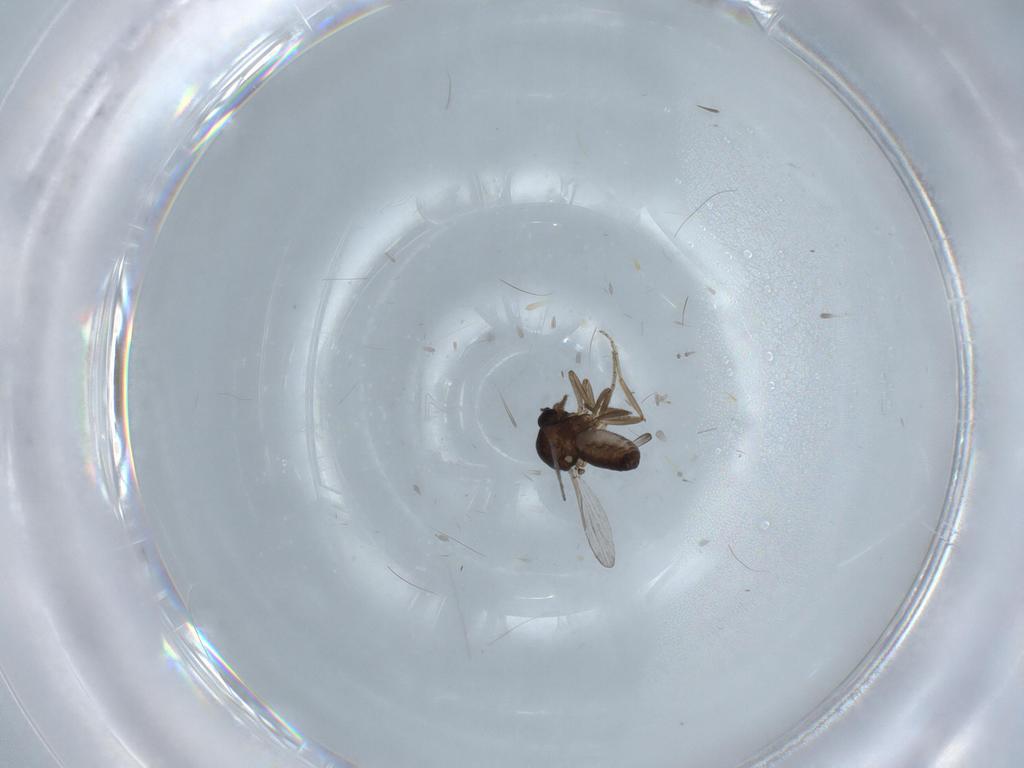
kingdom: Animalia
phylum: Arthropoda
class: Insecta
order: Diptera
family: Ceratopogonidae
